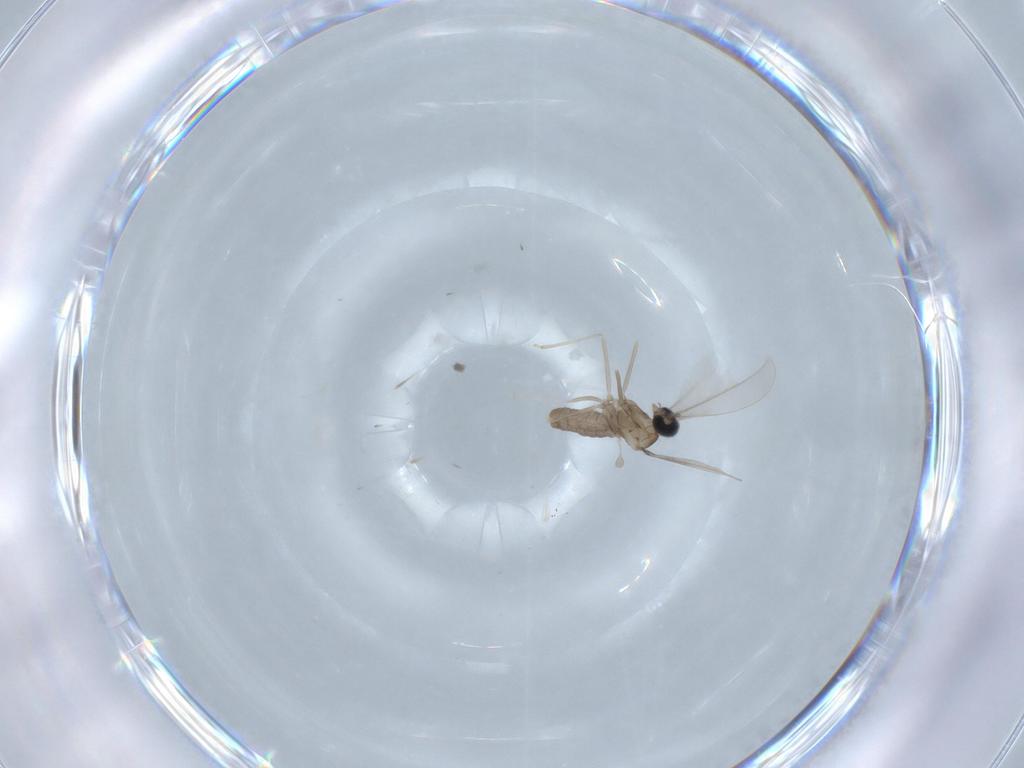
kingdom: Animalia
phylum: Arthropoda
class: Insecta
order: Diptera
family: Cecidomyiidae
